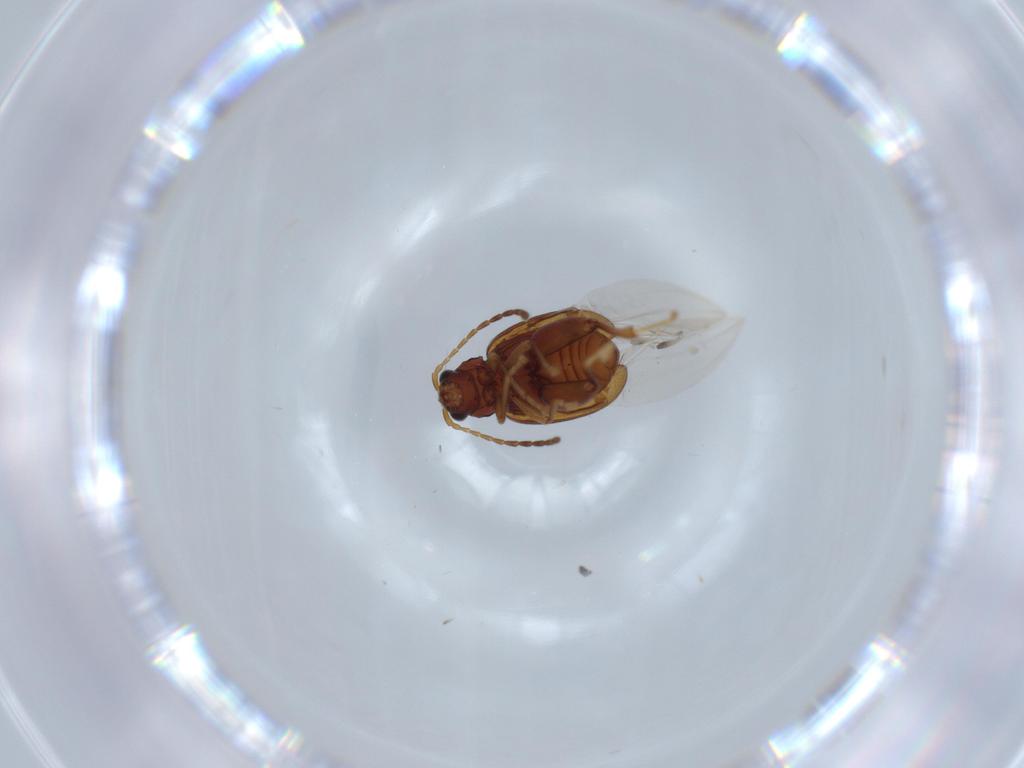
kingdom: Animalia
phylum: Arthropoda
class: Insecta
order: Coleoptera
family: Chrysomelidae
